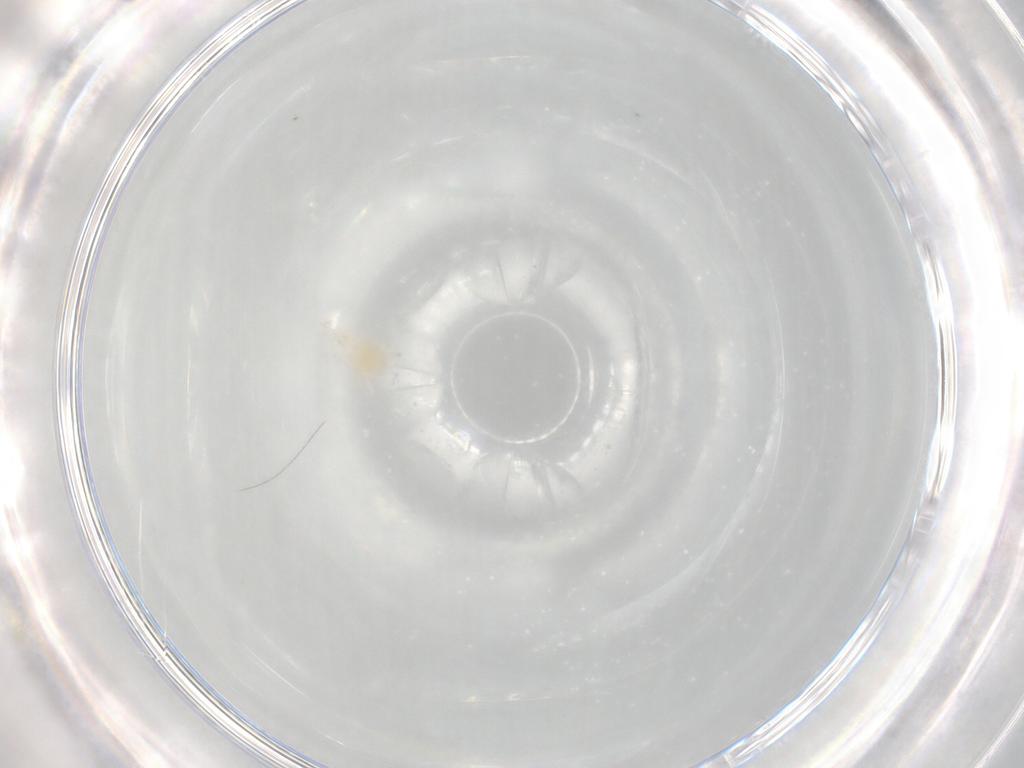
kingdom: Animalia
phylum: Arthropoda
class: Arachnida
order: Trombidiformes
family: Cunaxidae
